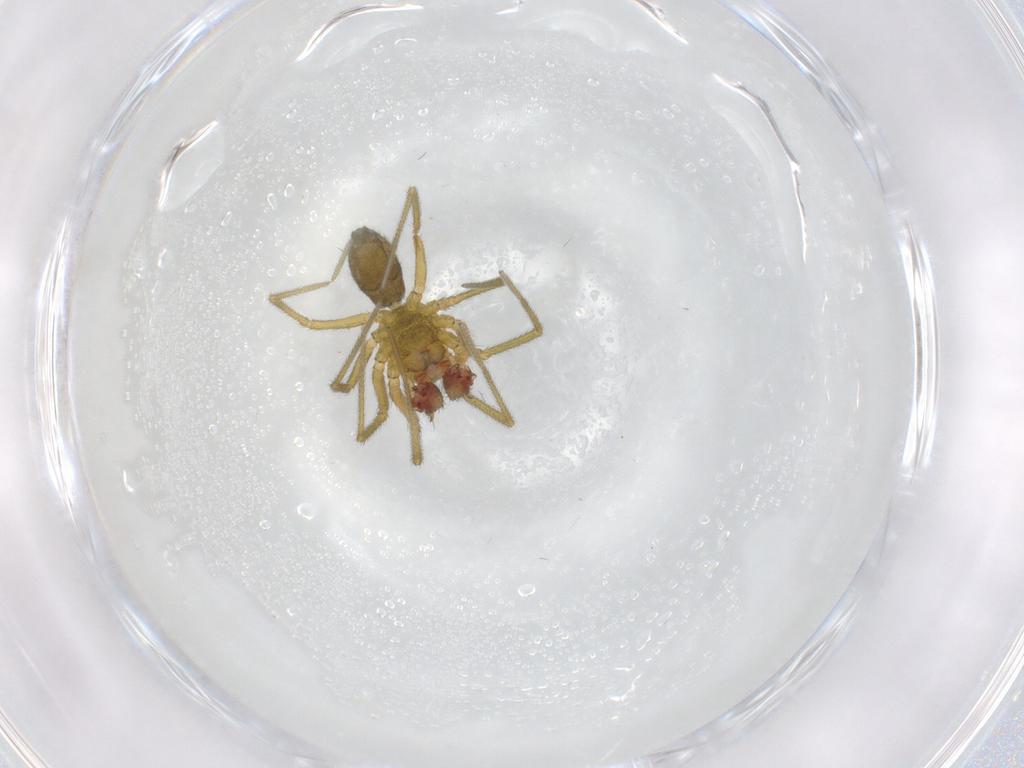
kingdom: Animalia
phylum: Arthropoda
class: Arachnida
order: Araneae
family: Linyphiidae
